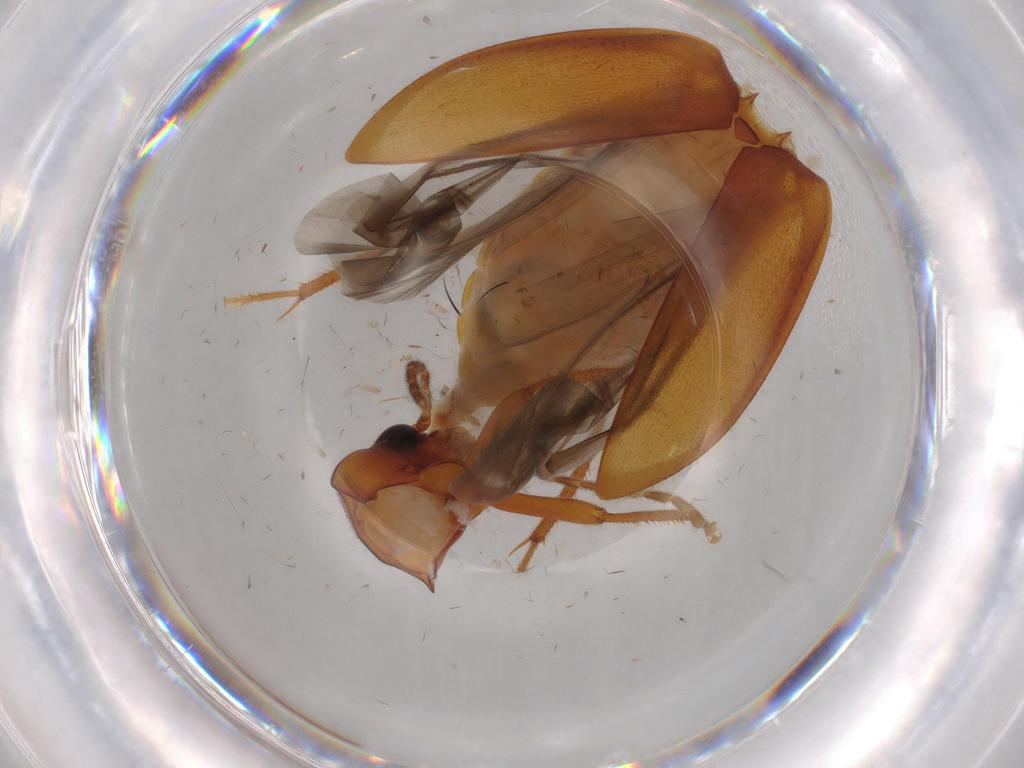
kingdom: Animalia
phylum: Arthropoda
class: Insecta
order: Coleoptera
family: Ptilodactylidae
